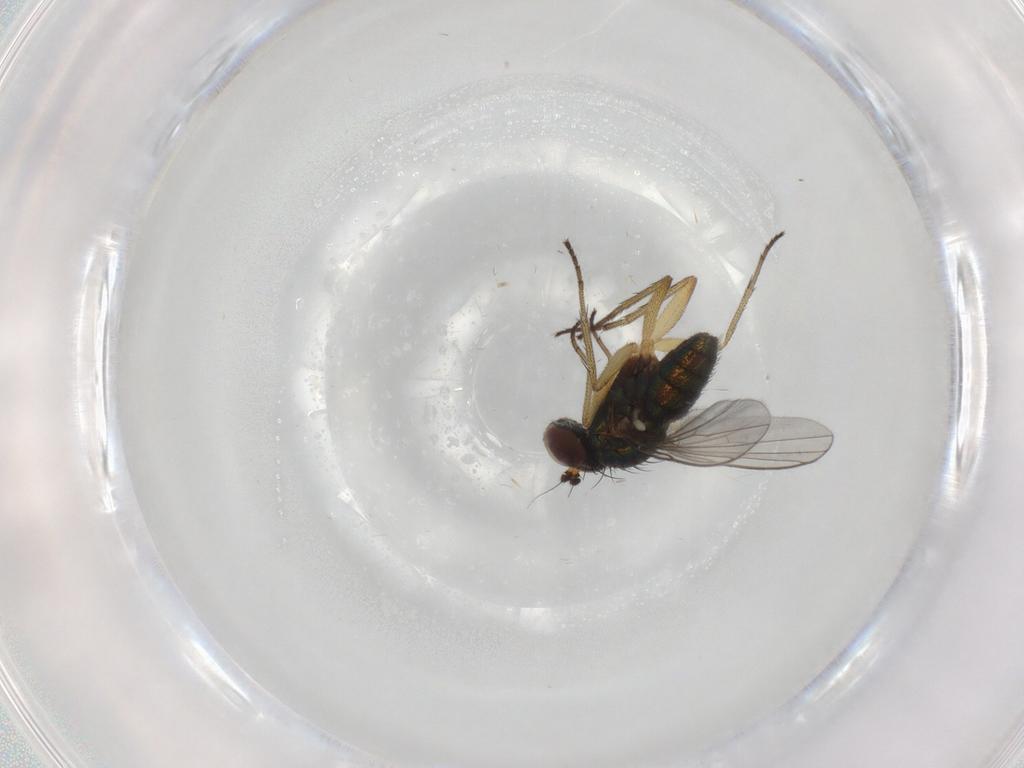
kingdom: Animalia
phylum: Arthropoda
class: Insecta
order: Diptera
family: Dolichopodidae
